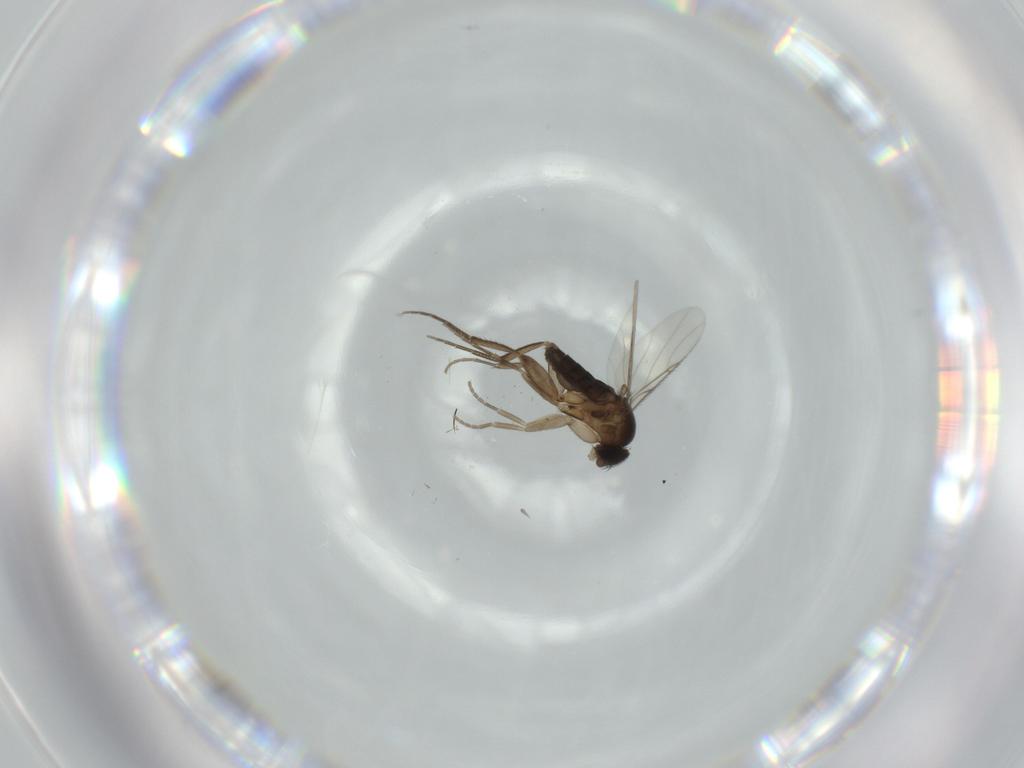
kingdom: Animalia
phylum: Arthropoda
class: Insecta
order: Diptera
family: Phoridae
